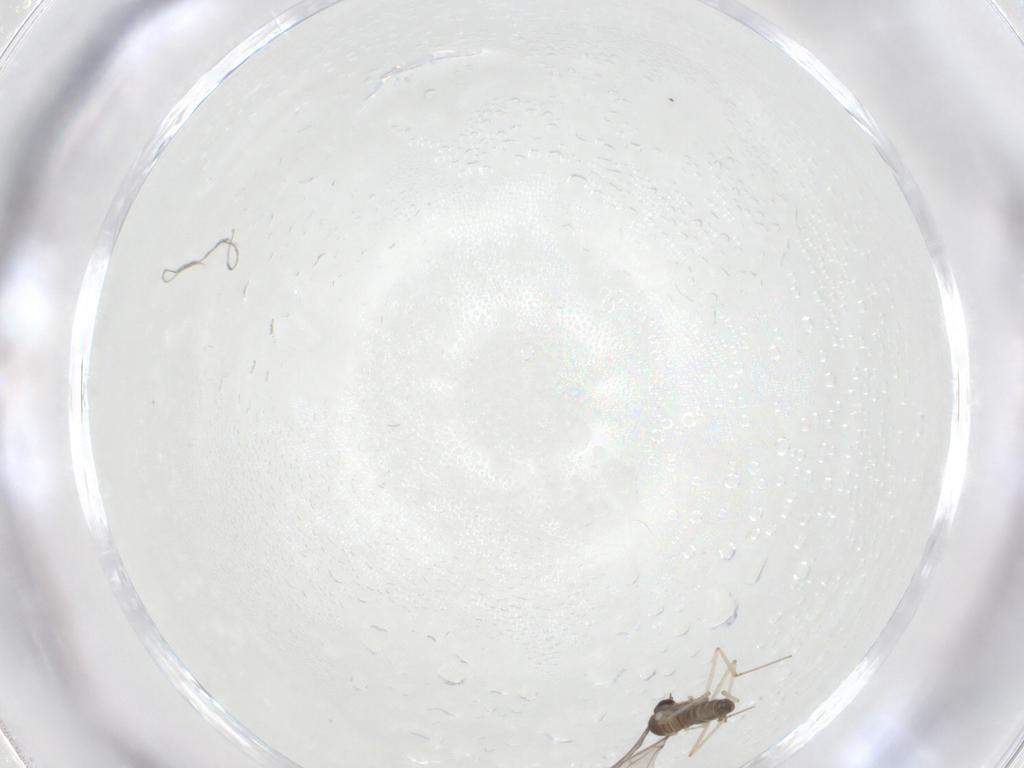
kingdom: Animalia
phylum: Arthropoda
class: Insecta
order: Diptera
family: Cecidomyiidae
